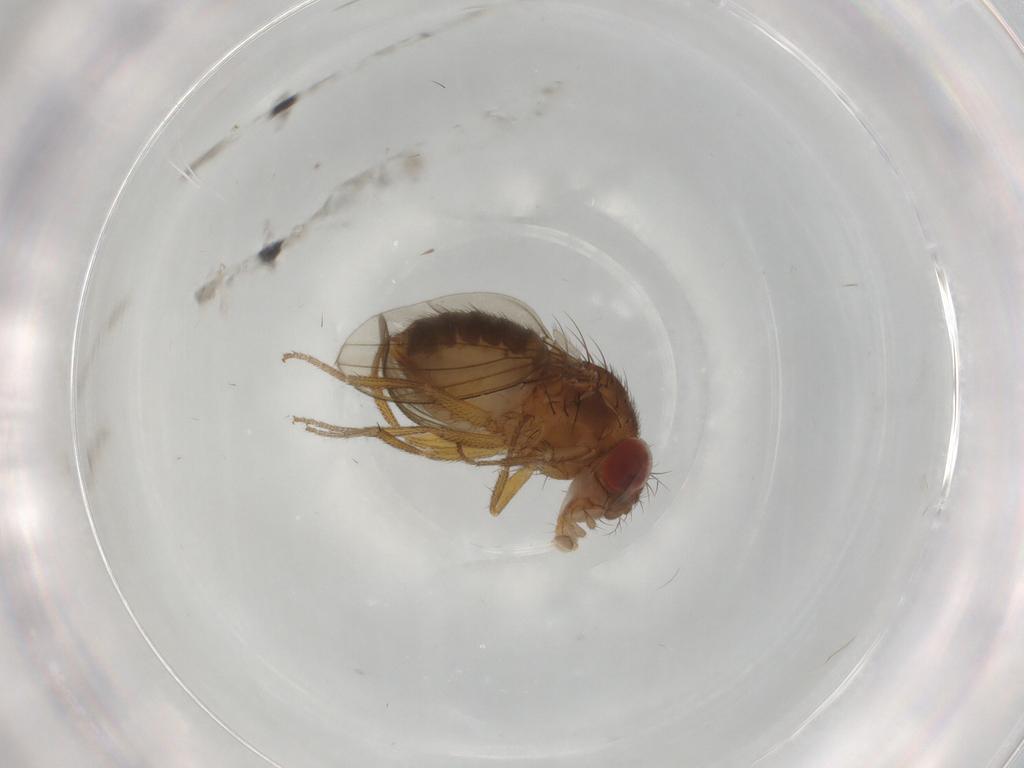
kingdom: Animalia
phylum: Arthropoda
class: Insecta
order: Diptera
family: Drosophilidae
